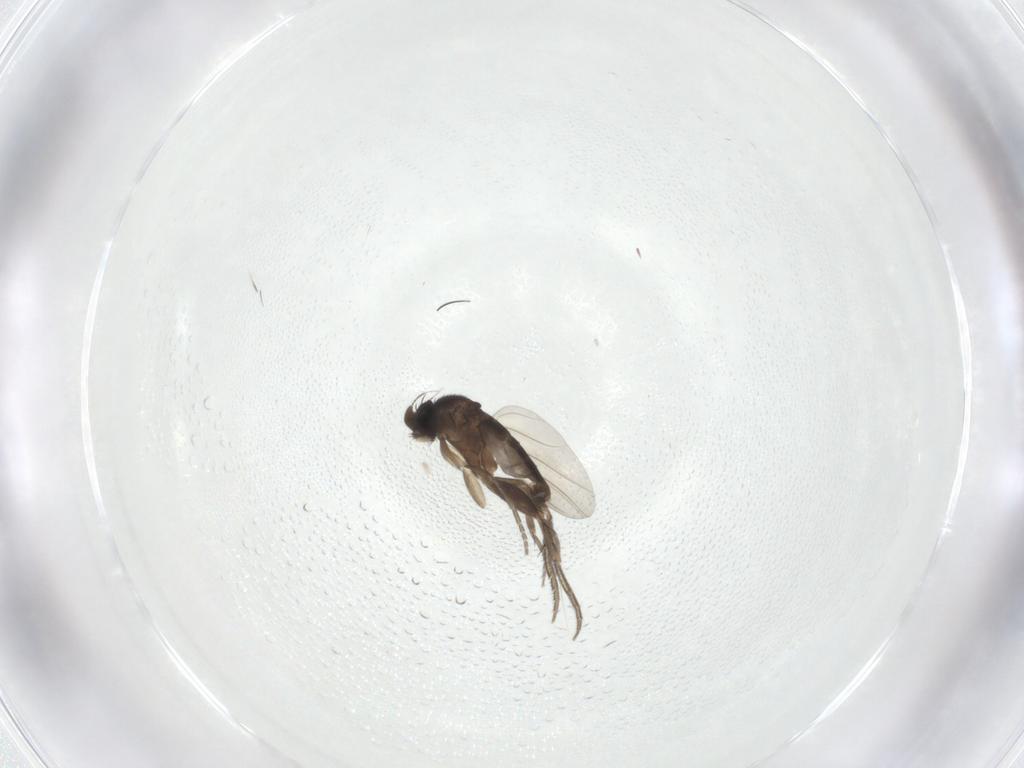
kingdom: Animalia
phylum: Arthropoda
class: Insecta
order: Diptera
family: Phoridae
